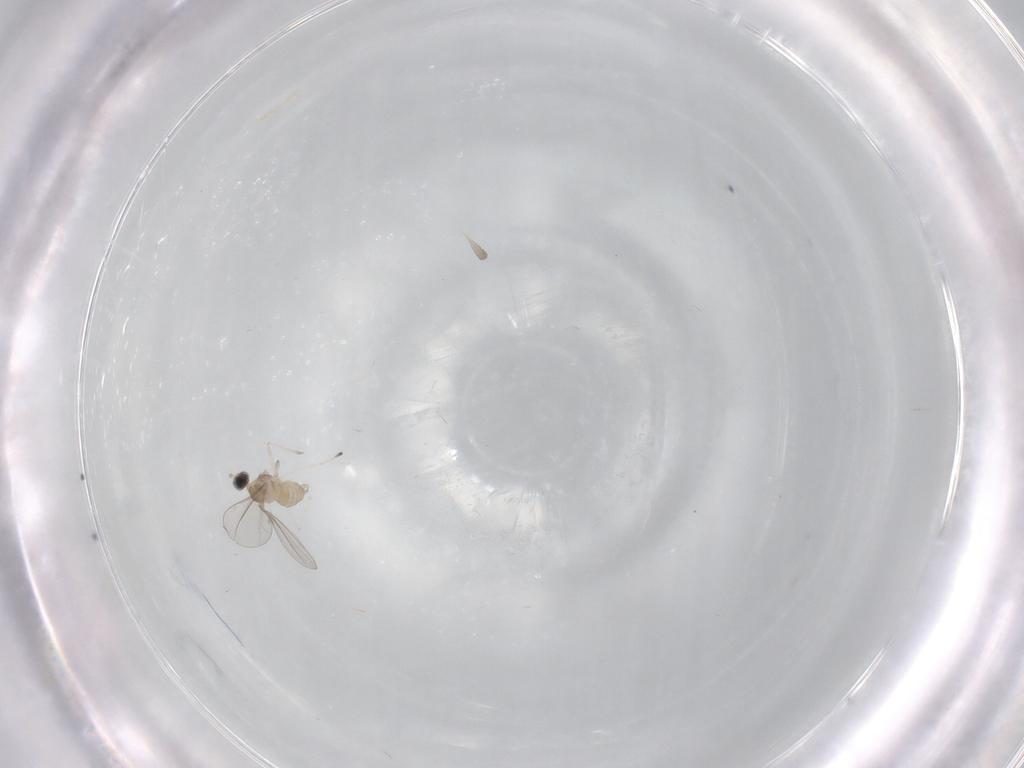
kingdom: Animalia
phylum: Arthropoda
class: Insecta
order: Diptera
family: Cecidomyiidae
